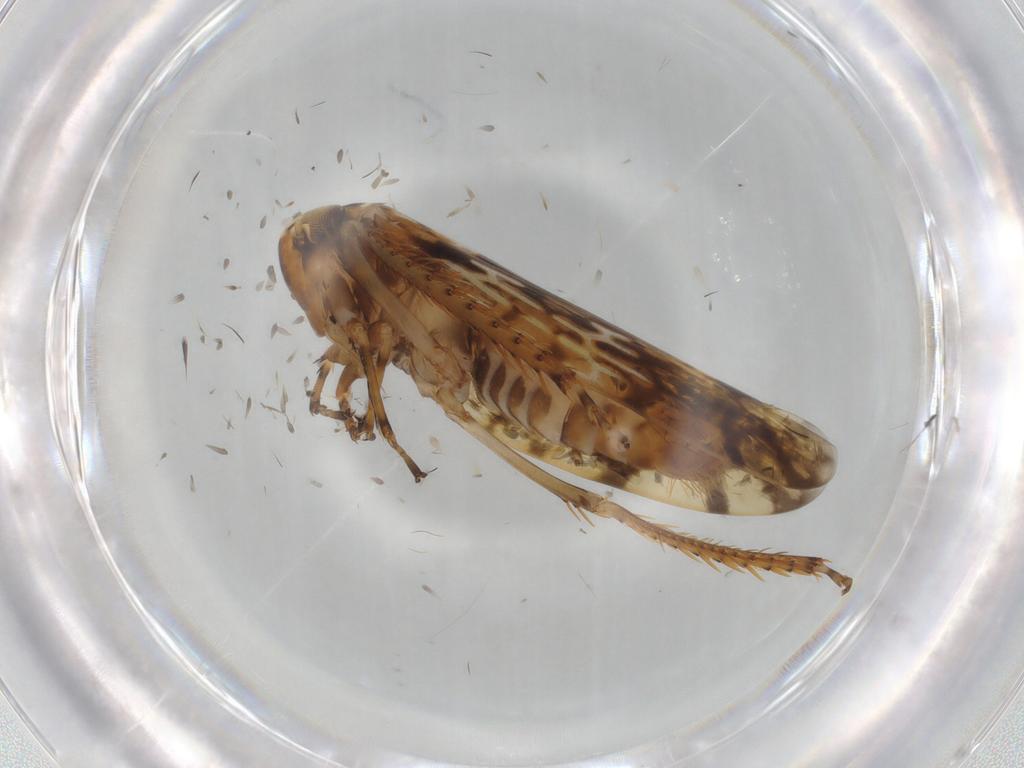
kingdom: Animalia
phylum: Arthropoda
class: Insecta
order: Hemiptera
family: Cicadellidae
